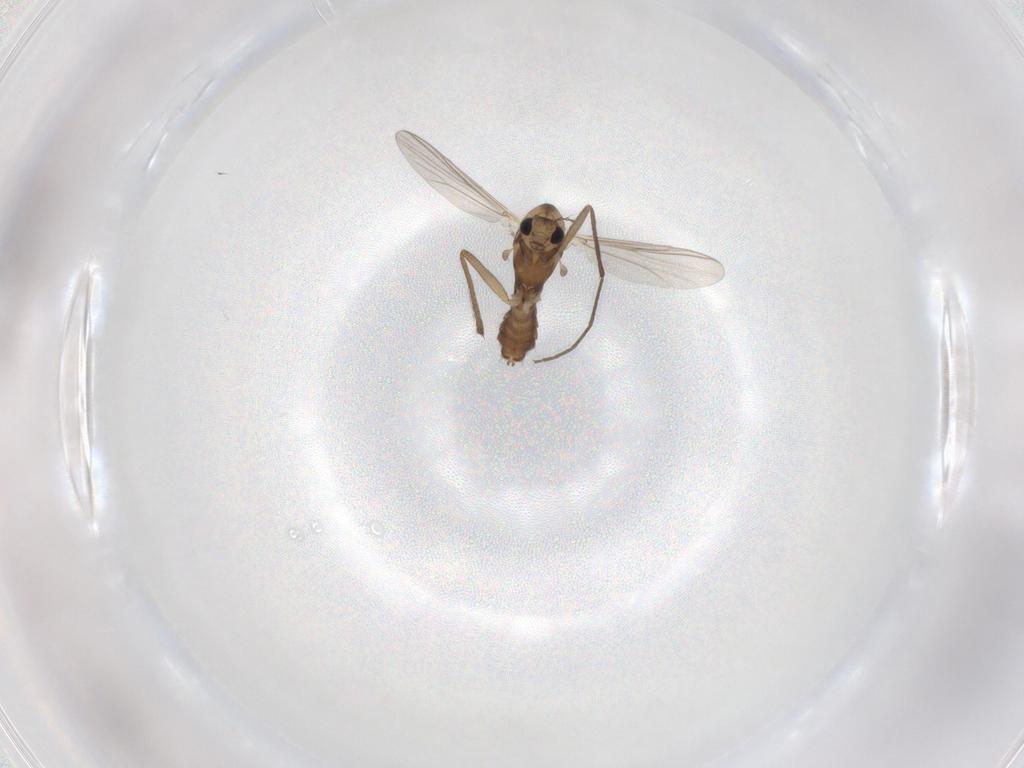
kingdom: Animalia
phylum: Arthropoda
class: Insecta
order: Diptera
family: Chironomidae
